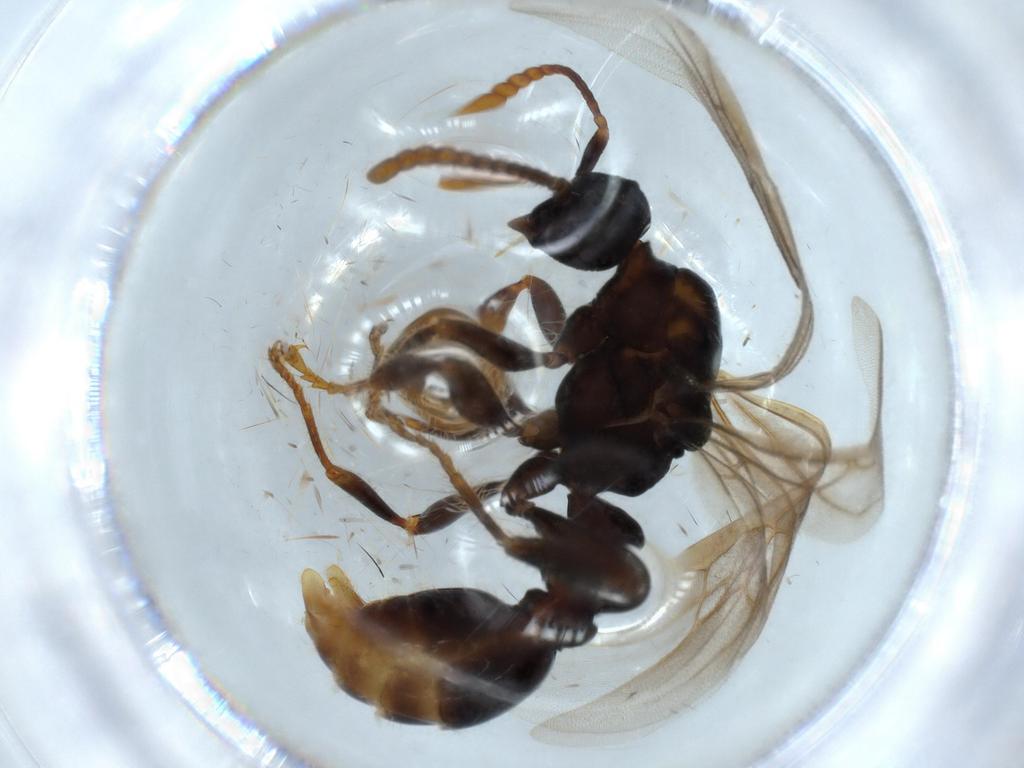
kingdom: Animalia
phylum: Arthropoda
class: Insecta
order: Hymenoptera
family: Formicidae
